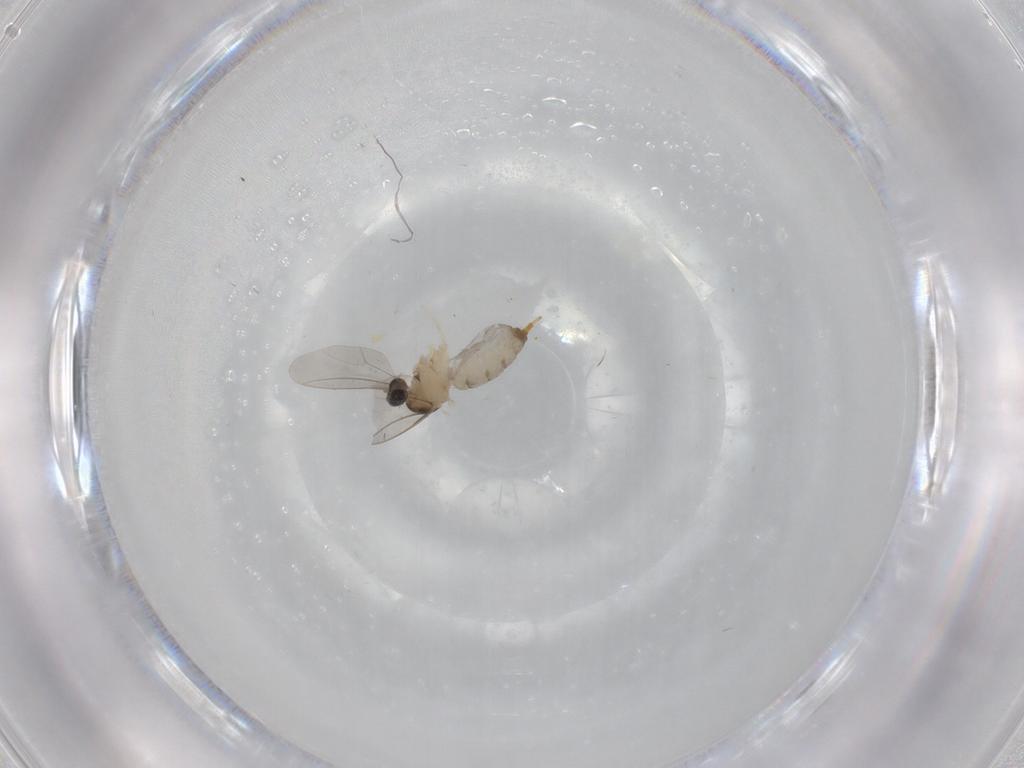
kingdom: Animalia
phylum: Arthropoda
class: Insecta
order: Diptera
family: Cecidomyiidae
